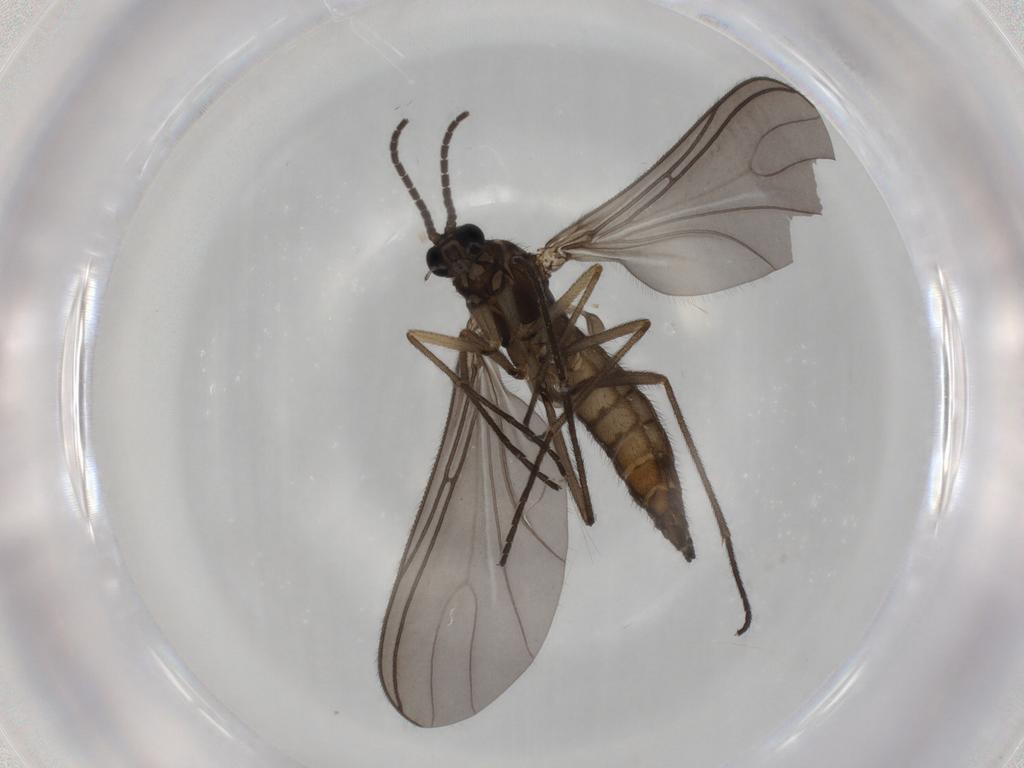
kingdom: Animalia
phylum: Arthropoda
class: Insecta
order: Diptera
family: Sciaridae
